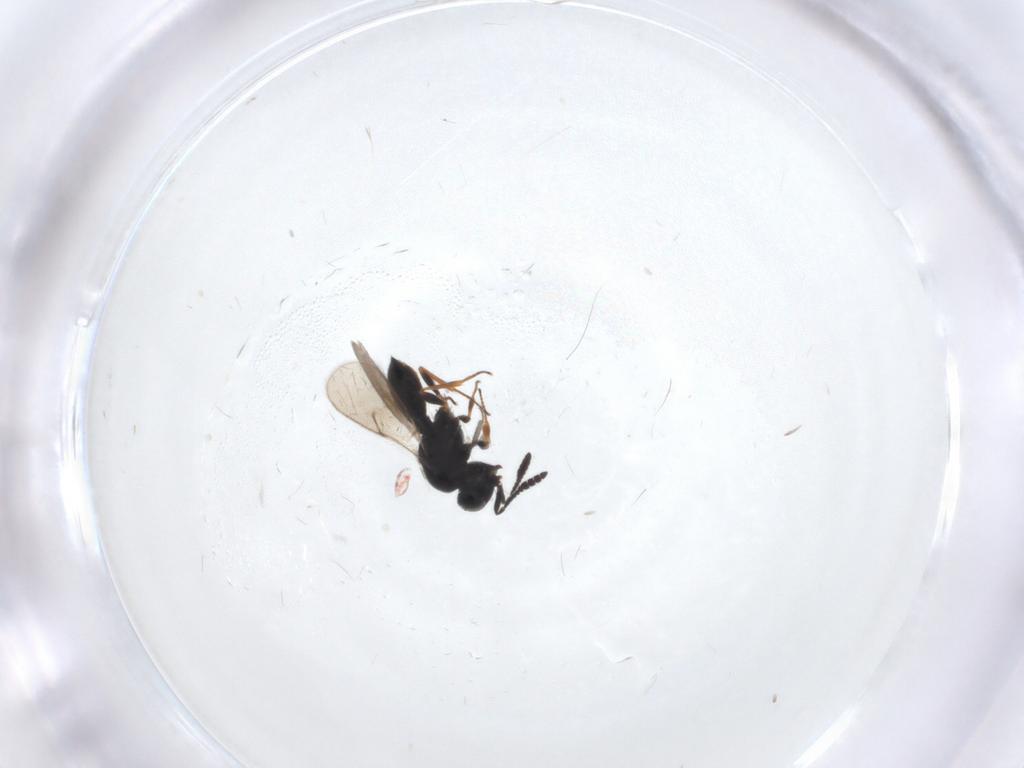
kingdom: Animalia
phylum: Arthropoda
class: Insecta
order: Hymenoptera
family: Scelionidae
